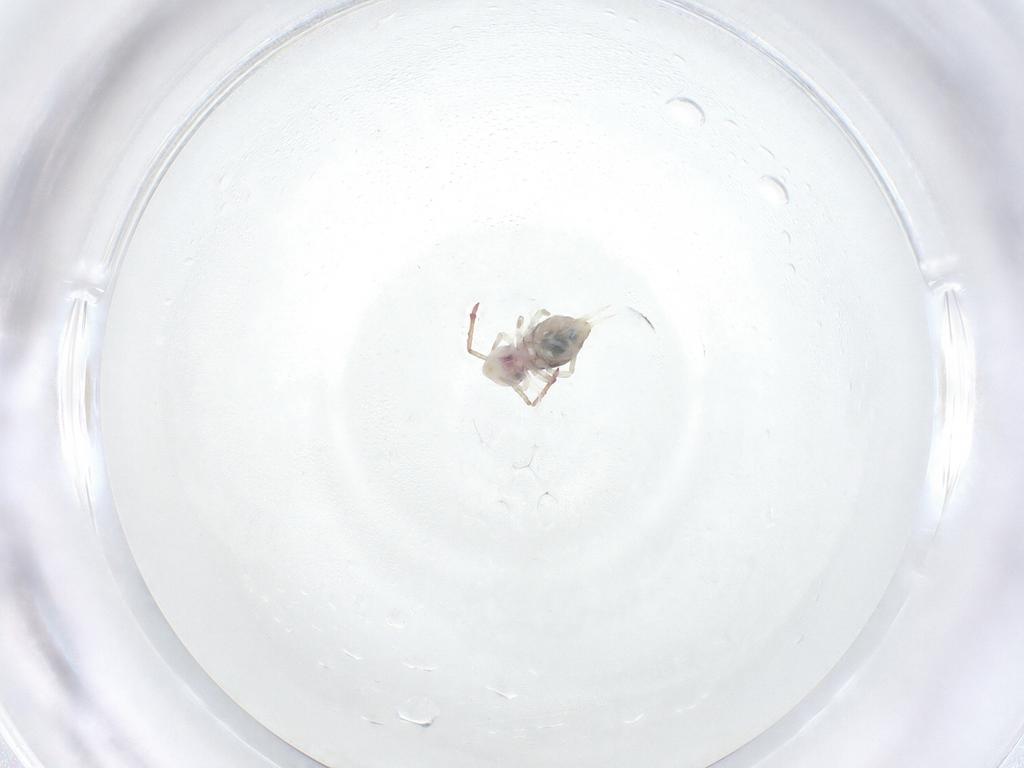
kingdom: Animalia
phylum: Arthropoda
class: Collembola
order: Symphypleona
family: Dicyrtomidae
